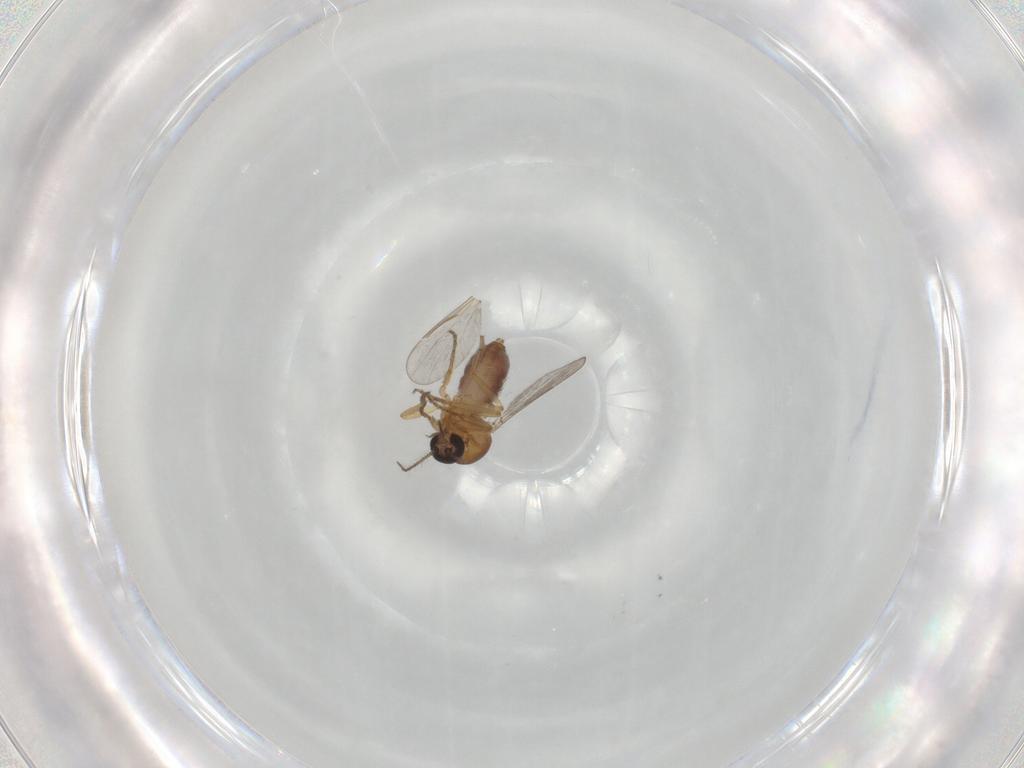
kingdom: Animalia
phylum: Arthropoda
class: Insecta
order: Diptera
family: Ceratopogonidae
